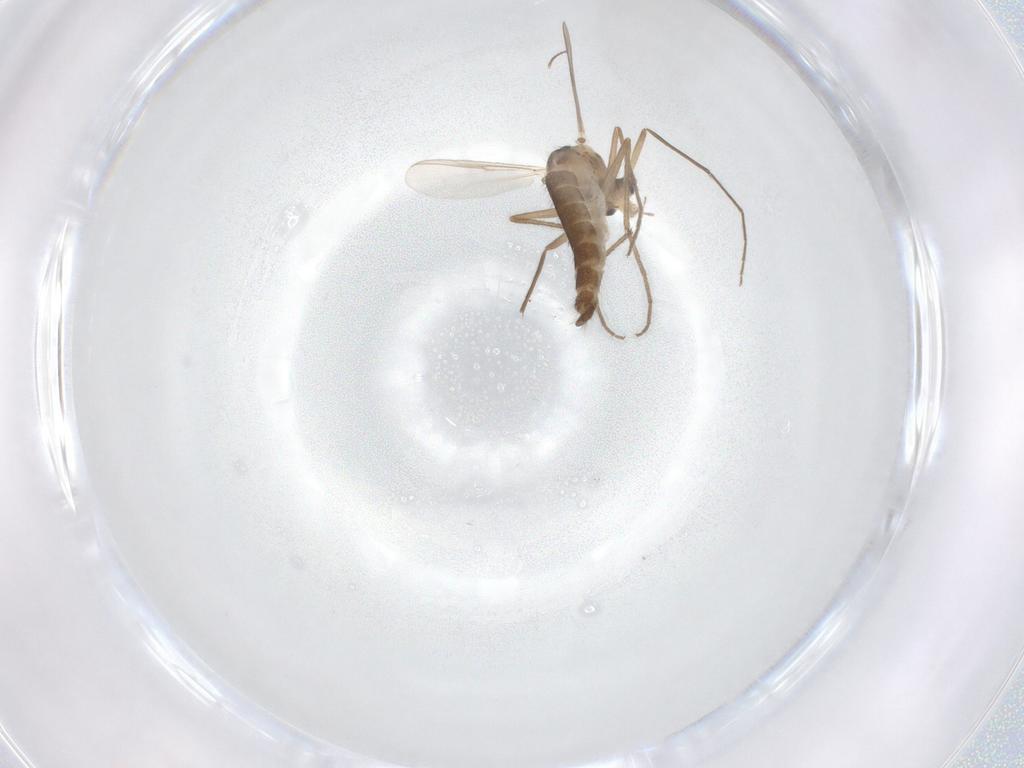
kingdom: Animalia
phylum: Arthropoda
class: Insecta
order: Diptera
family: Chironomidae
